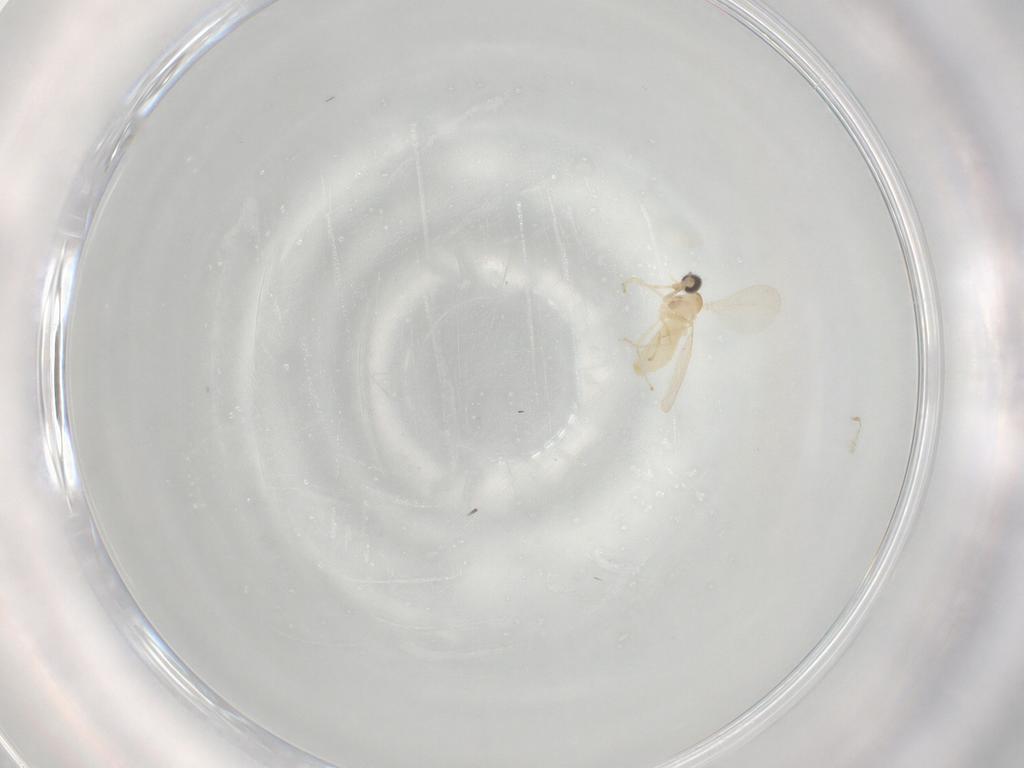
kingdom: Animalia
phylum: Arthropoda
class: Insecta
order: Diptera
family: Cecidomyiidae
